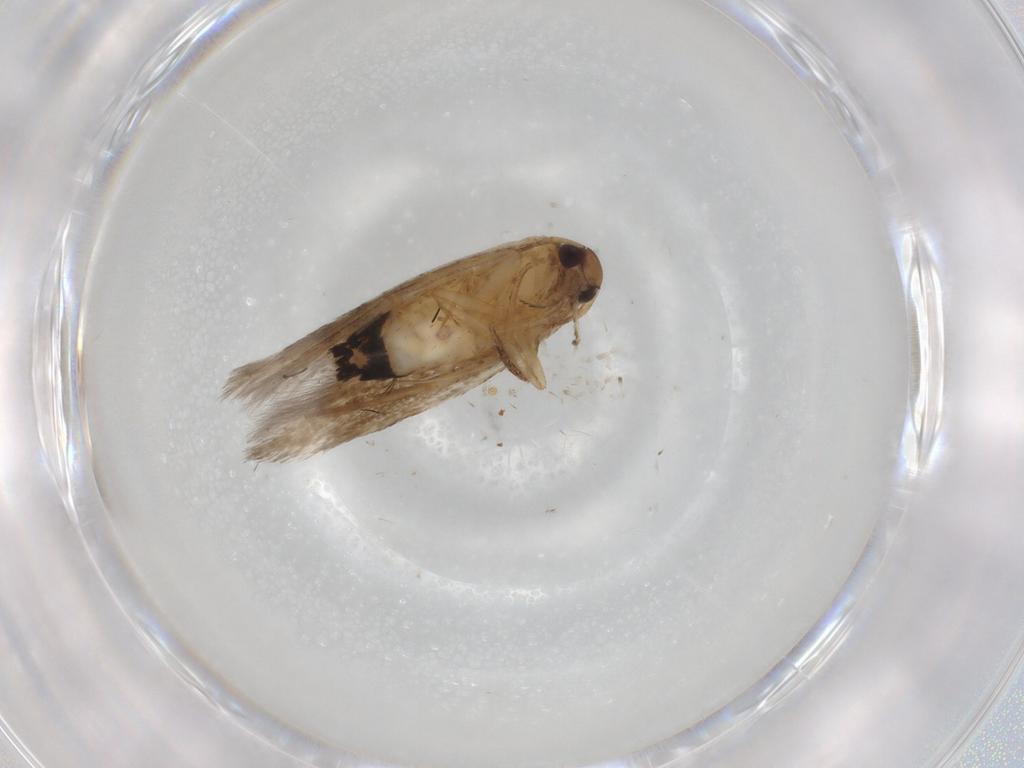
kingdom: Animalia
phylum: Arthropoda
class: Insecta
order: Lepidoptera
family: Cosmopterigidae
